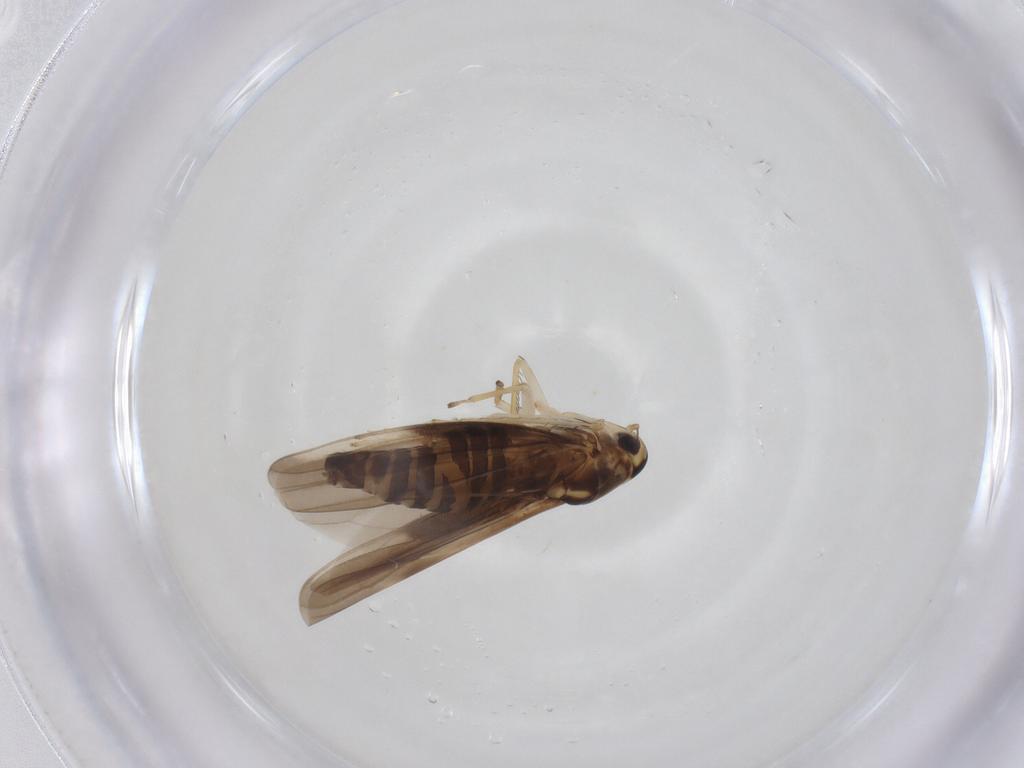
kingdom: Animalia
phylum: Arthropoda
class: Insecta
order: Hemiptera
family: Cicadellidae
